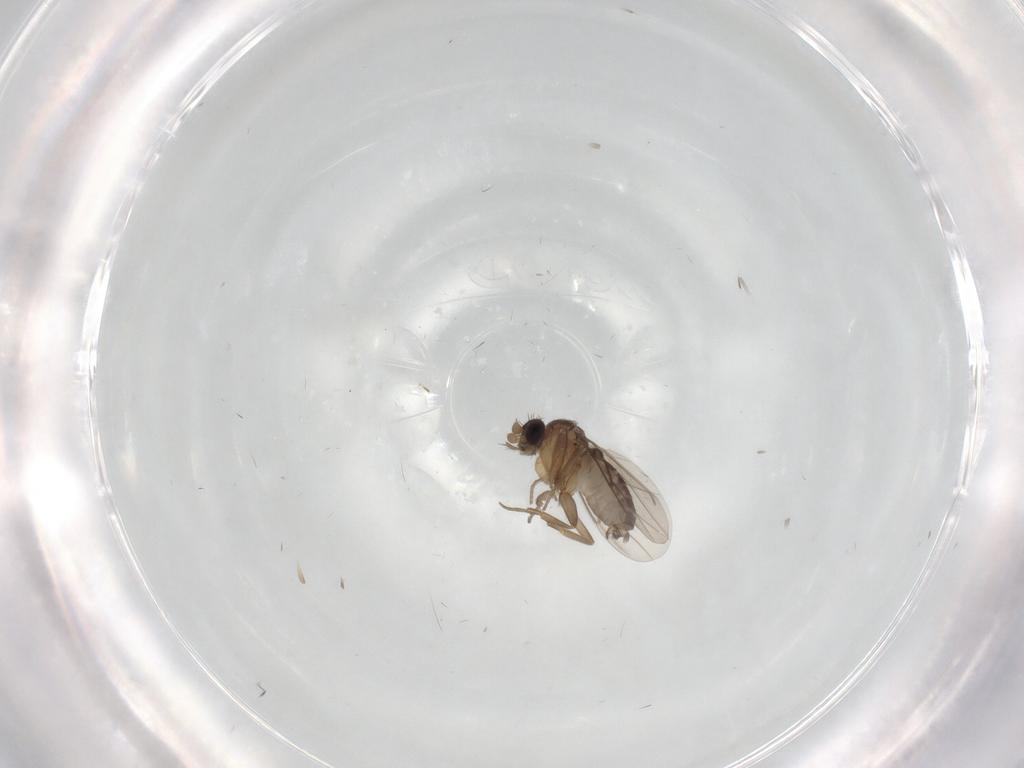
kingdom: Animalia
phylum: Arthropoda
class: Insecta
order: Diptera
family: Phoridae
